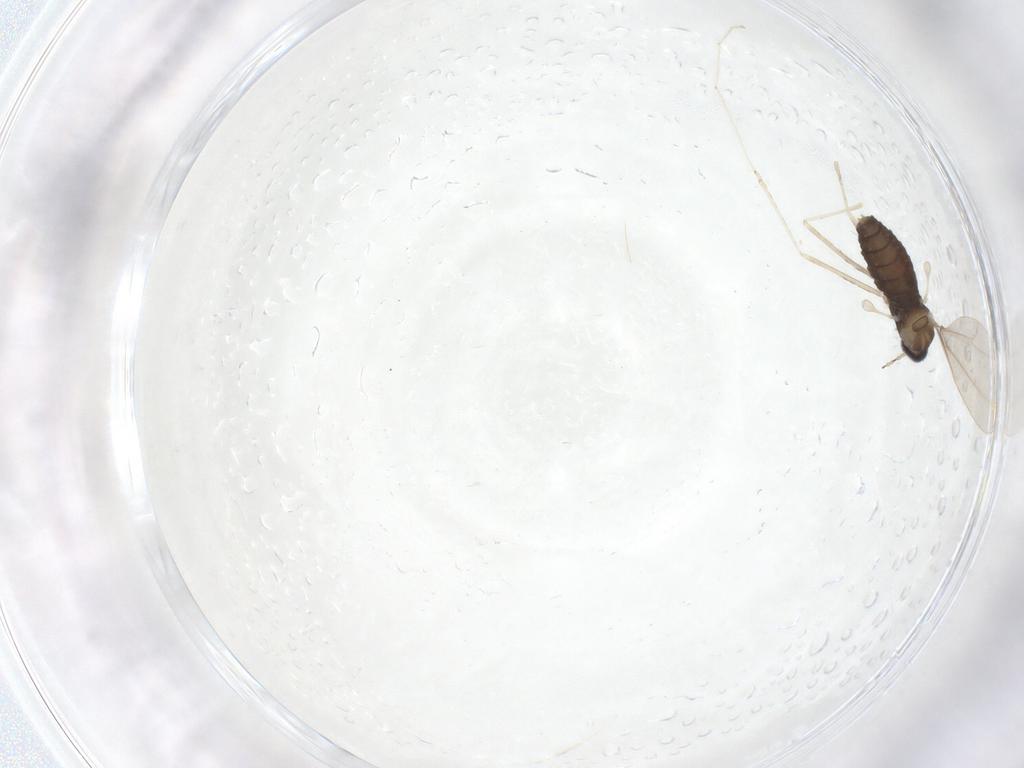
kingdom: Animalia
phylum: Arthropoda
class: Insecta
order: Diptera
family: Cecidomyiidae
